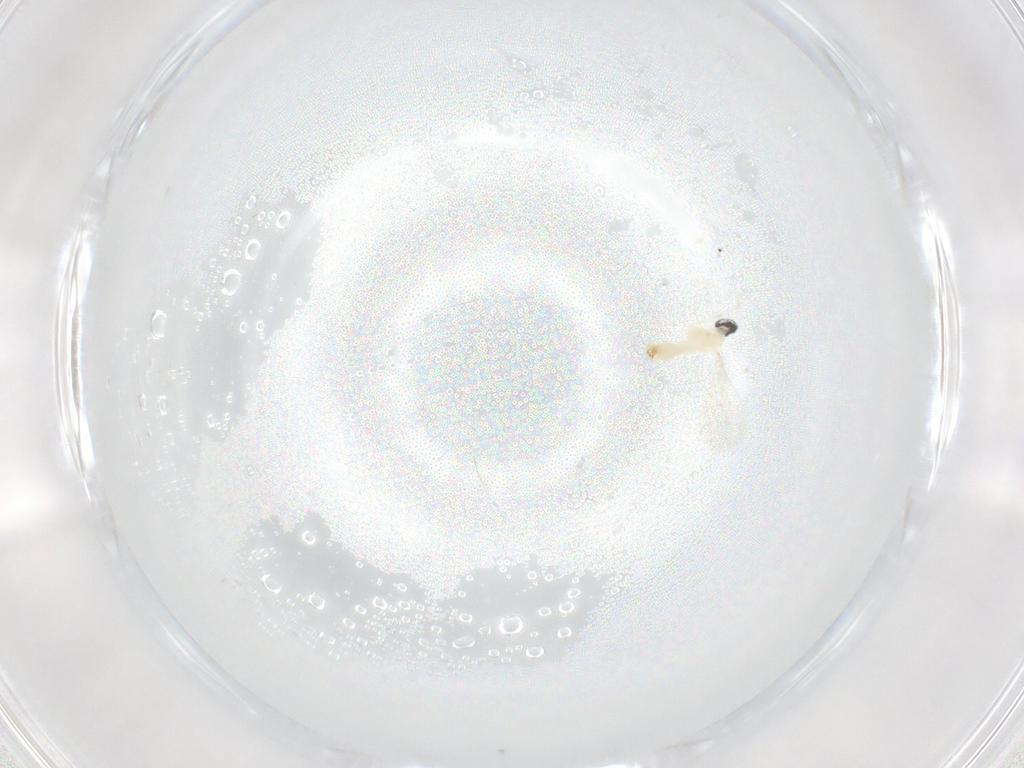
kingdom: Animalia
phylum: Arthropoda
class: Insecta
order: Diptera
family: Cecidomyiidae
